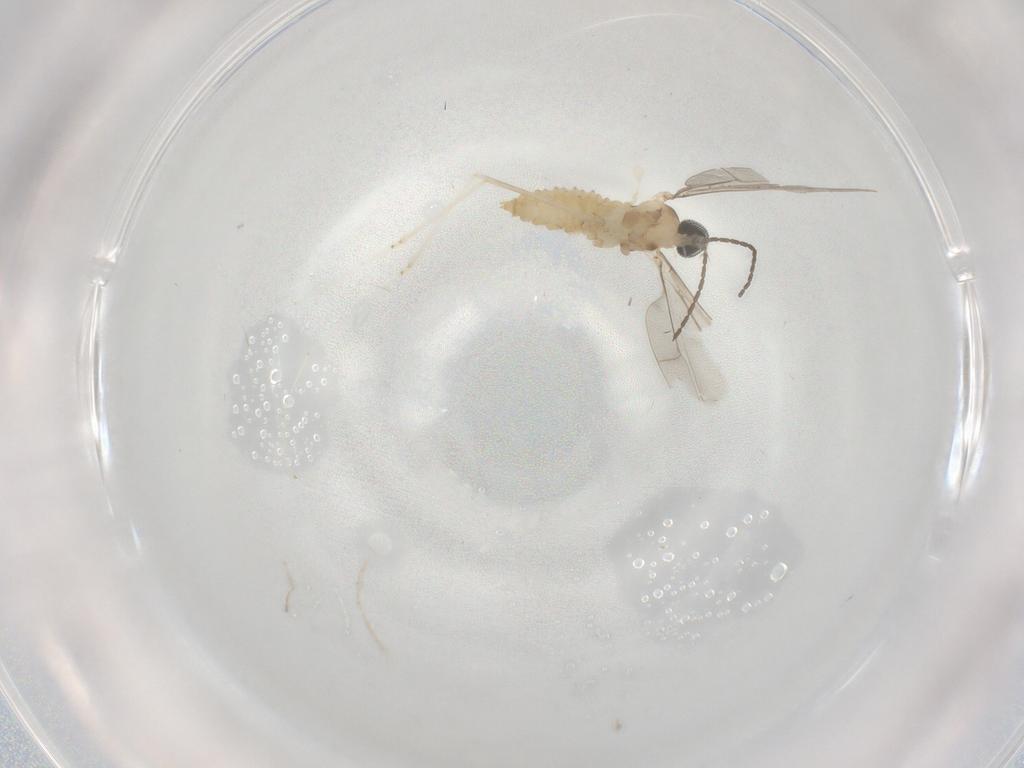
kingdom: Animalia
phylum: Arthropoda
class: Insecta
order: Diptera
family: Cecidomyiidae
